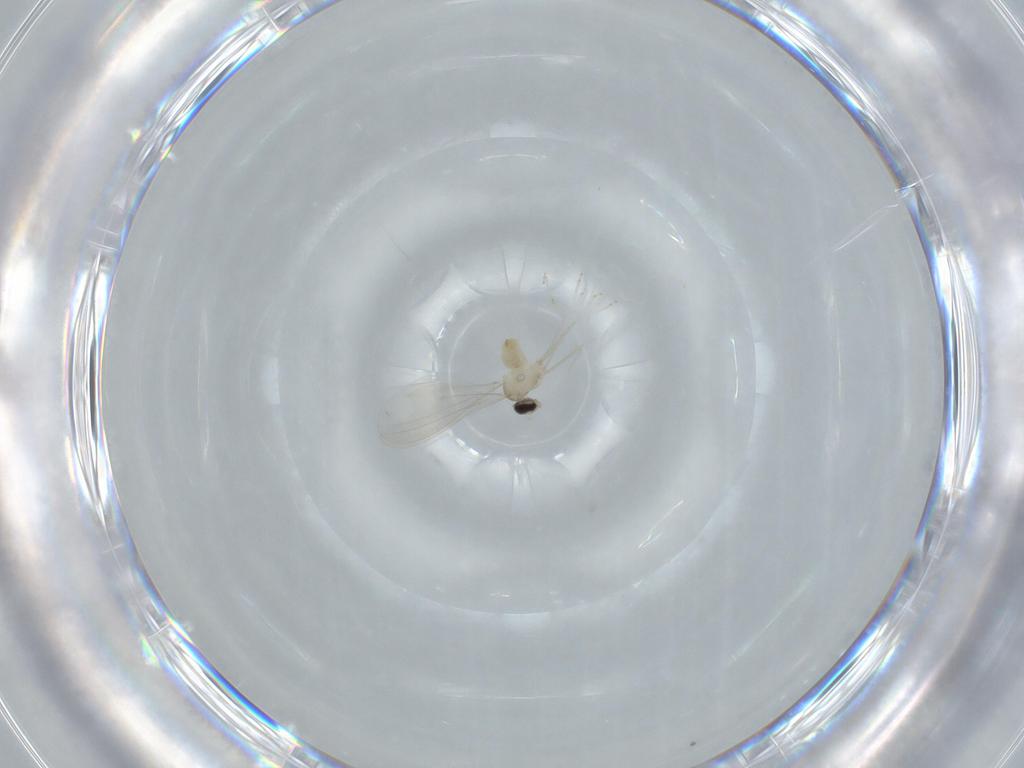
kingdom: Animalia
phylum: Arthropoda
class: Insecta
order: Diptera
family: Cecidomyiidae
